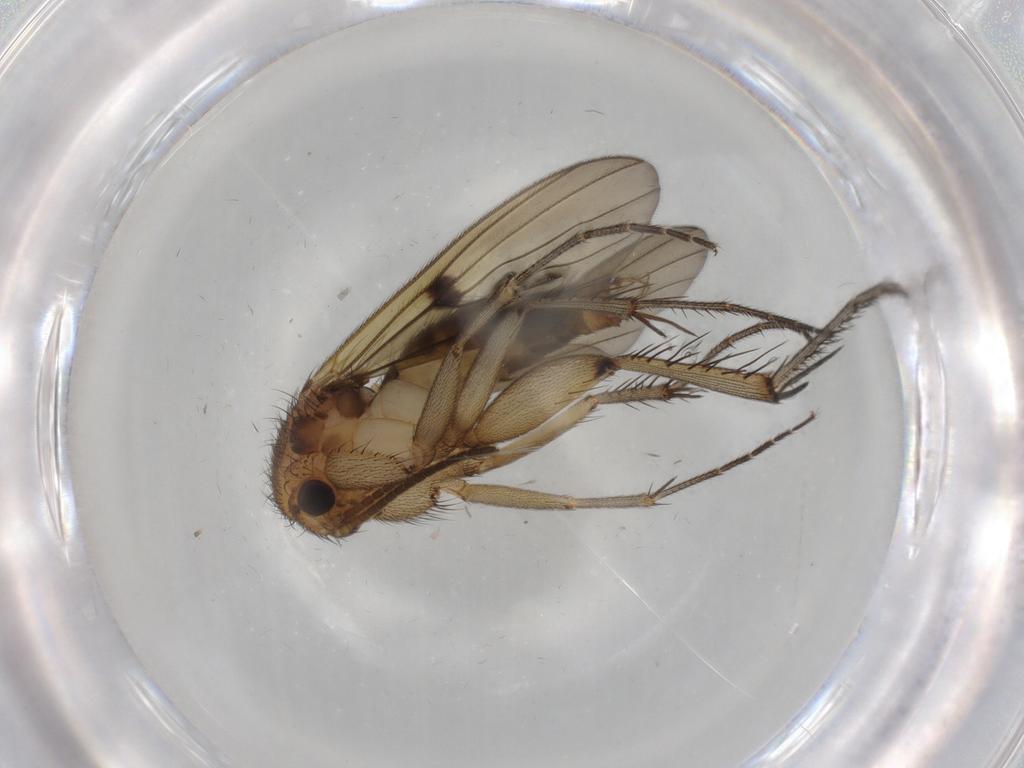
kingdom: Animalia
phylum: Arthropoda
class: Insecta
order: Diptera
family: Mycetophilidae
